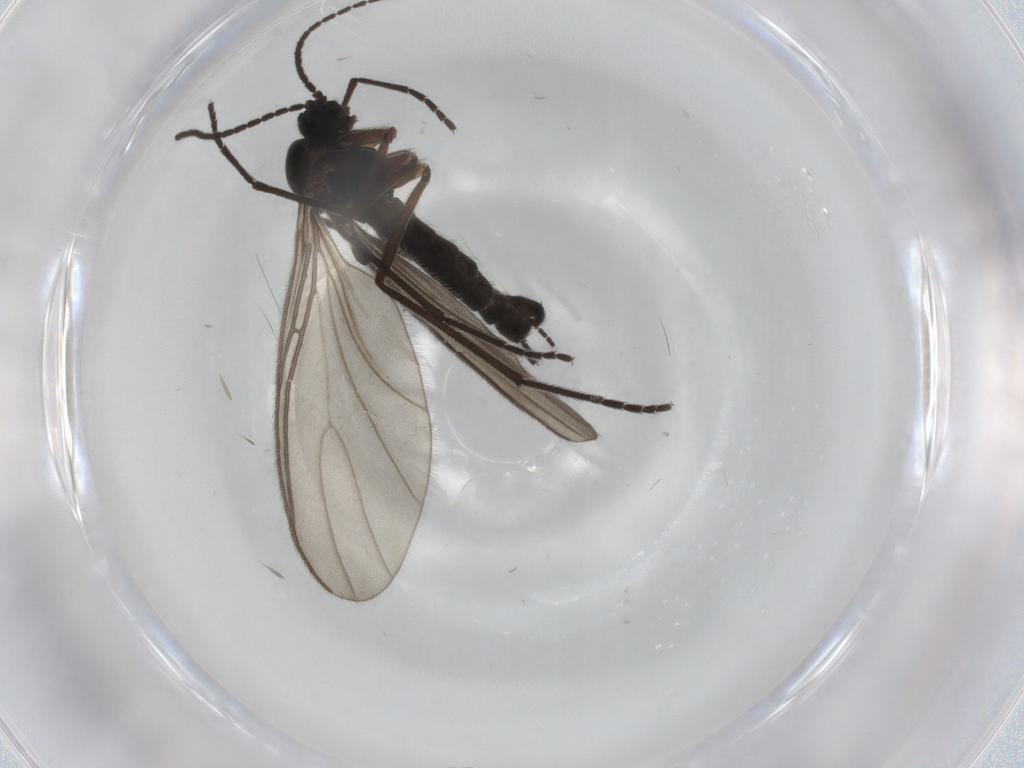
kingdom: Animalia
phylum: Arthropoda
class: Insecta
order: Diptera
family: Sciaridae
